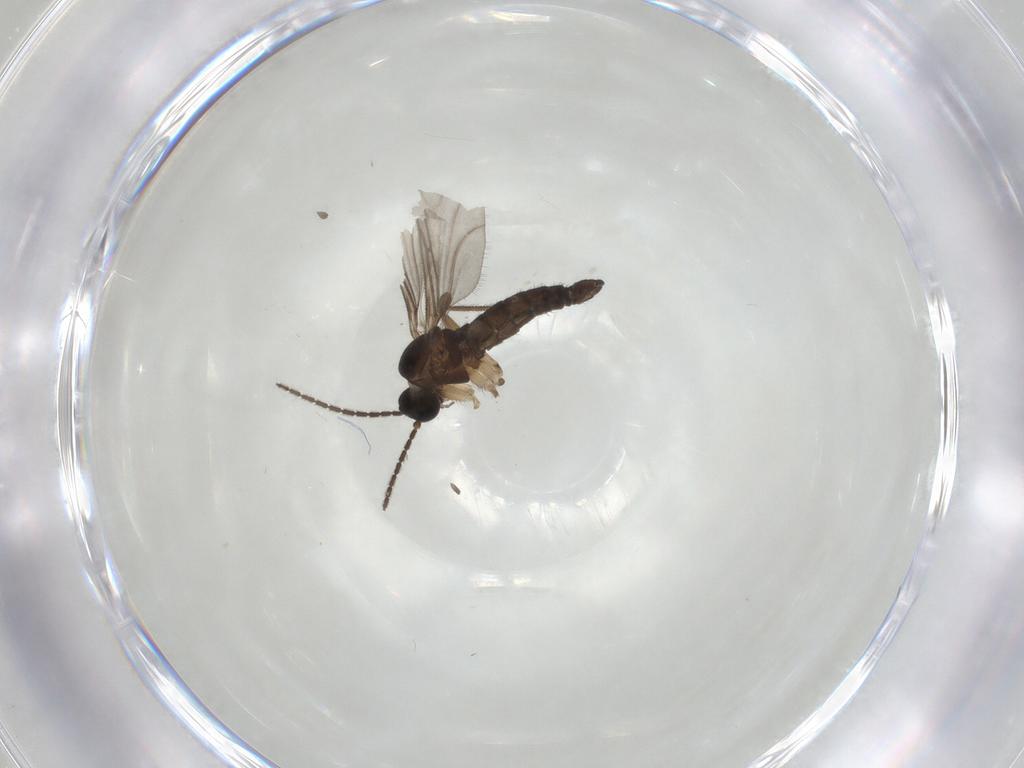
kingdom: Animalia
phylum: Arthropoda
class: Insecta
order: Diptera
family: Sciaridae
